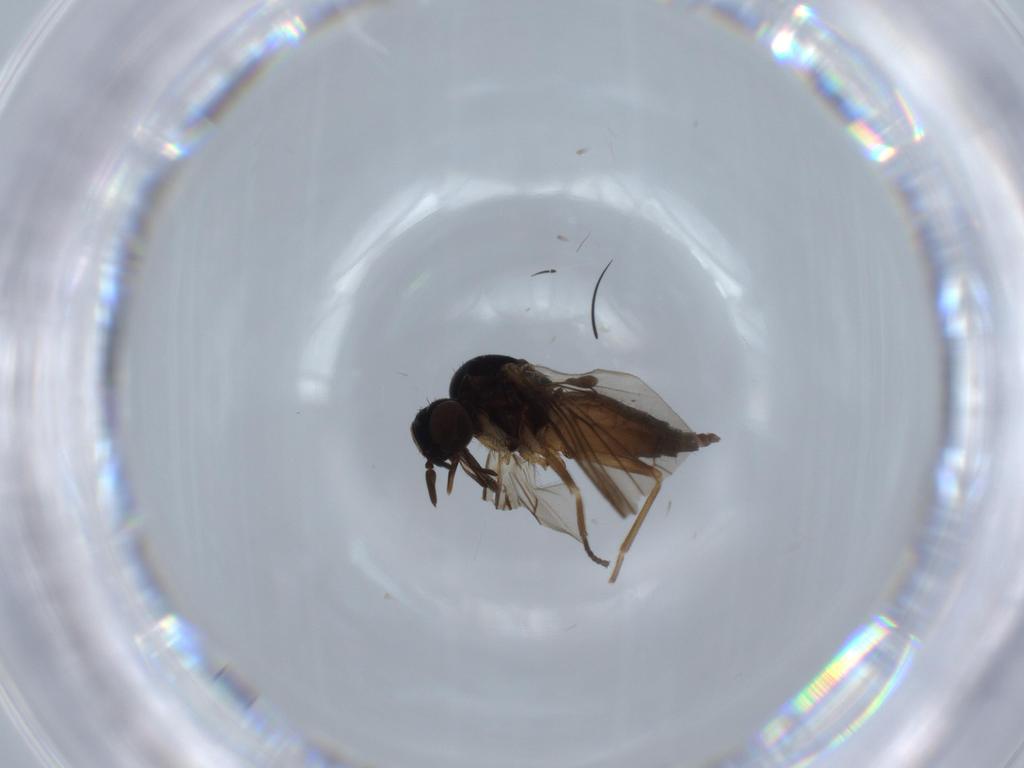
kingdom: Animalia
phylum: Arthropoda
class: Insecta
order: Diptera
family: Iteaphilidae
